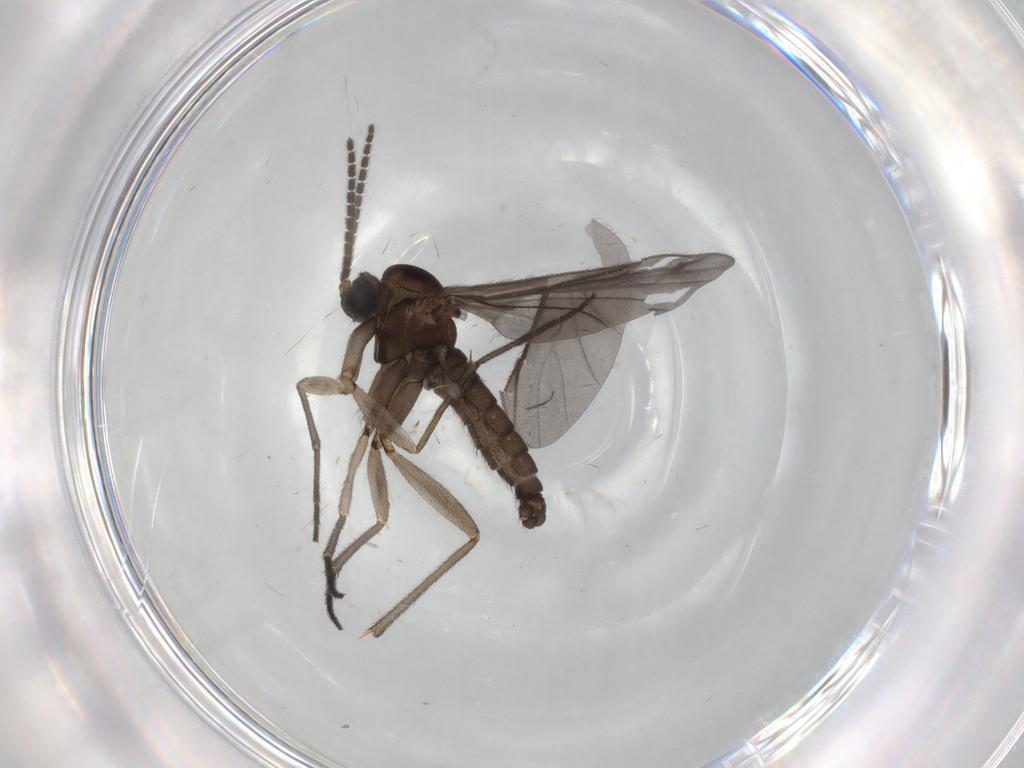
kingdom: Animalia
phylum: Arthropoda
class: Insecta
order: Diptera
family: Sciaridae
